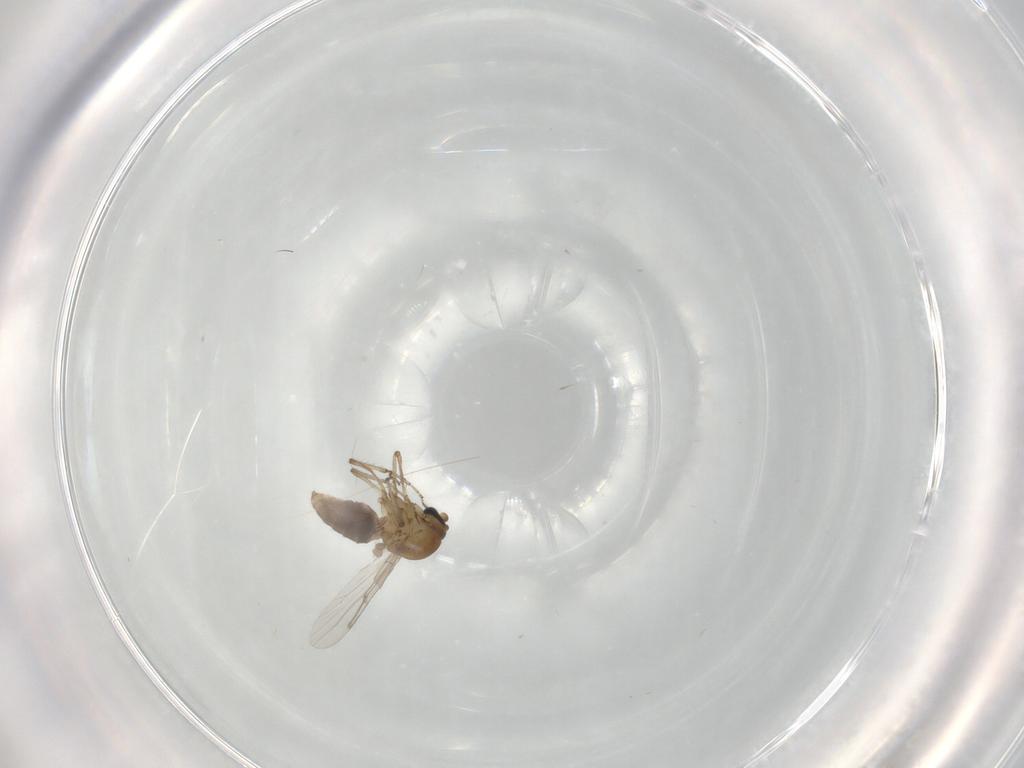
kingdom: Animalia
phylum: Arthropoda
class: Insecta
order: Diptera
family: Ceratopogonidae
